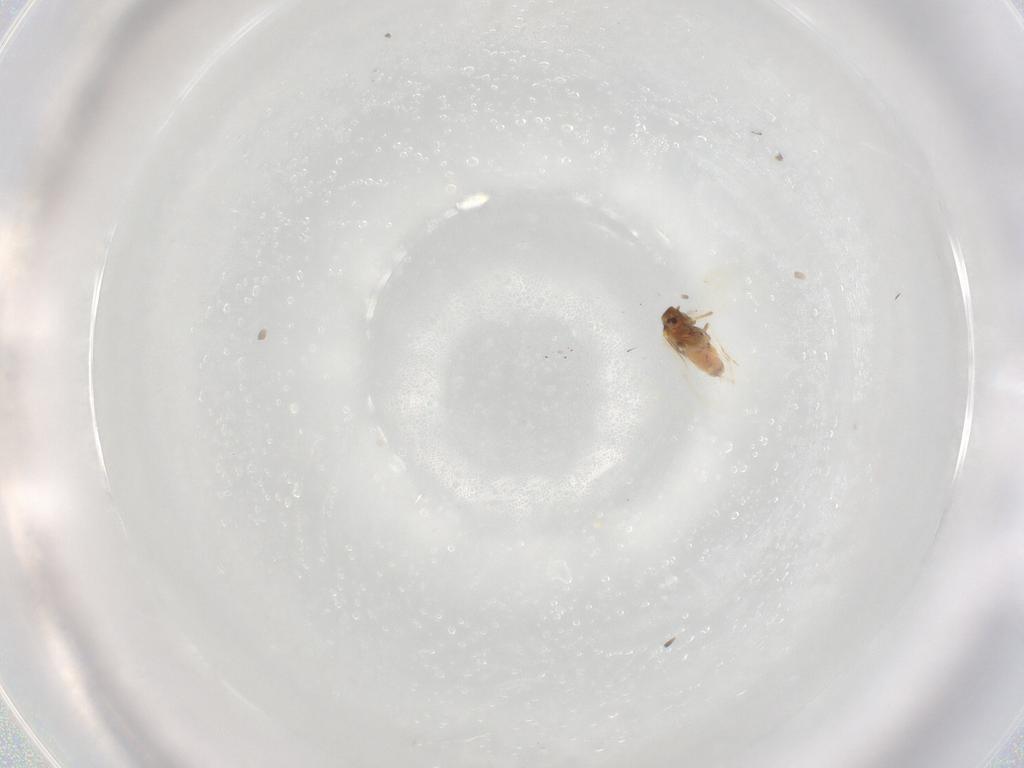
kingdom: Animalia
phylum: Arthropoda
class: Insecta
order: Hemiptera
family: Aleyrodidae
